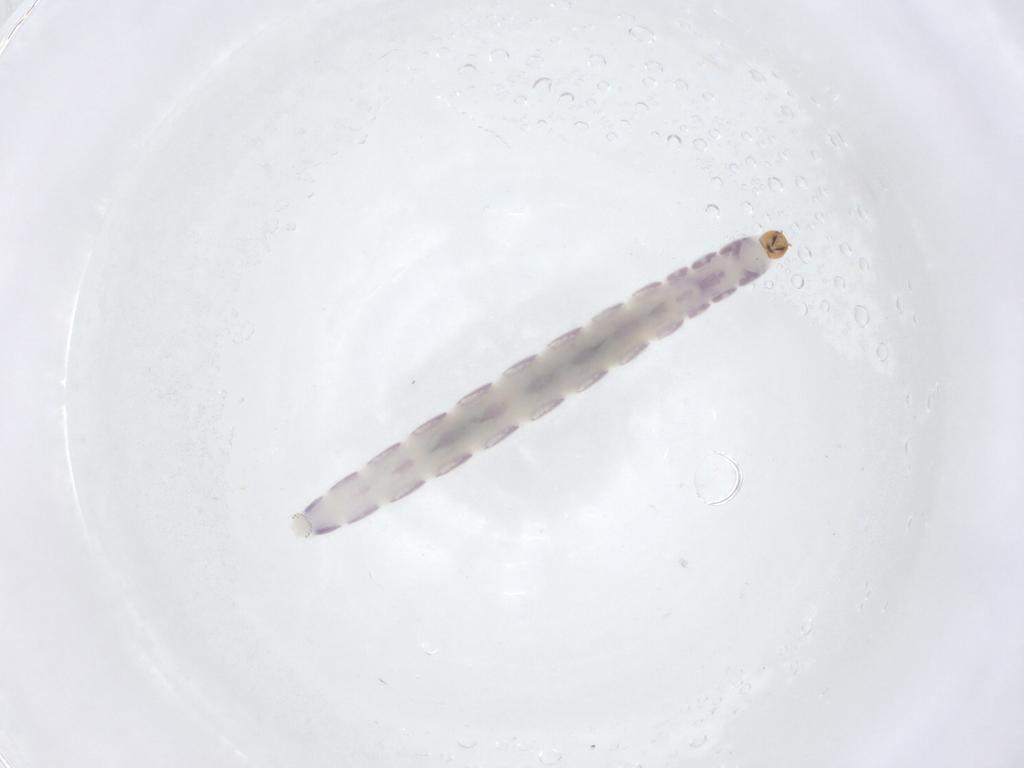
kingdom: Animalia
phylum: Arthropoda
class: Insecta
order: Diptera
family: Chironomidae
